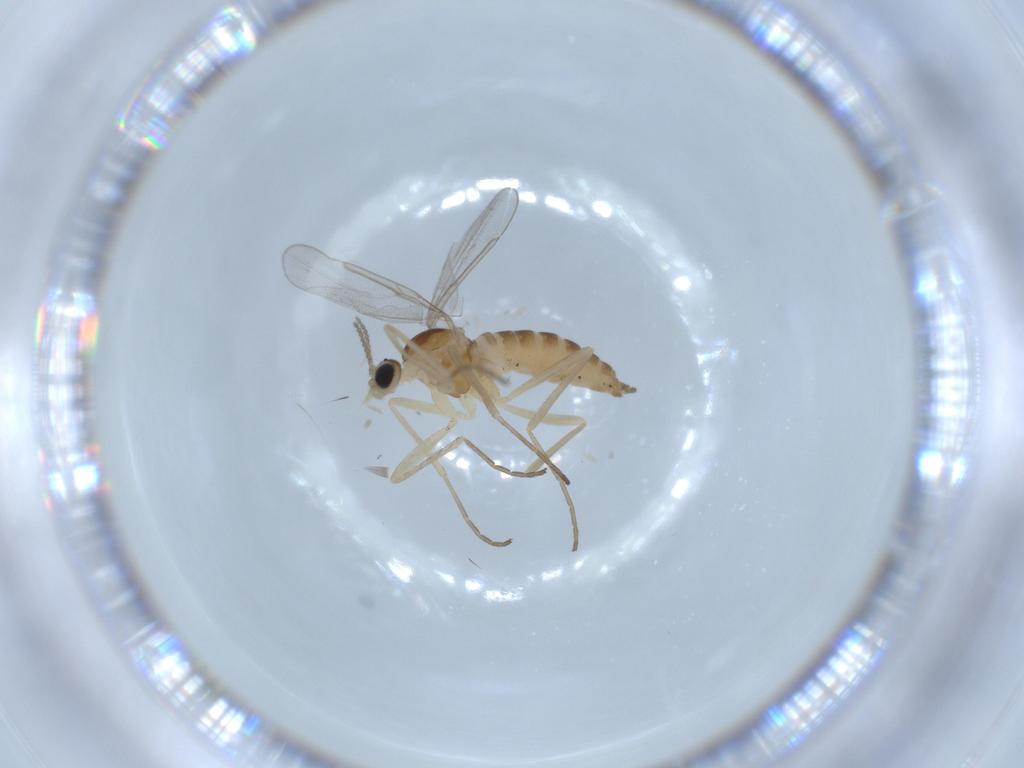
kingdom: Animalia
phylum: Arthropoda
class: Insecta
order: Diptera
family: Cecidomyiidae
